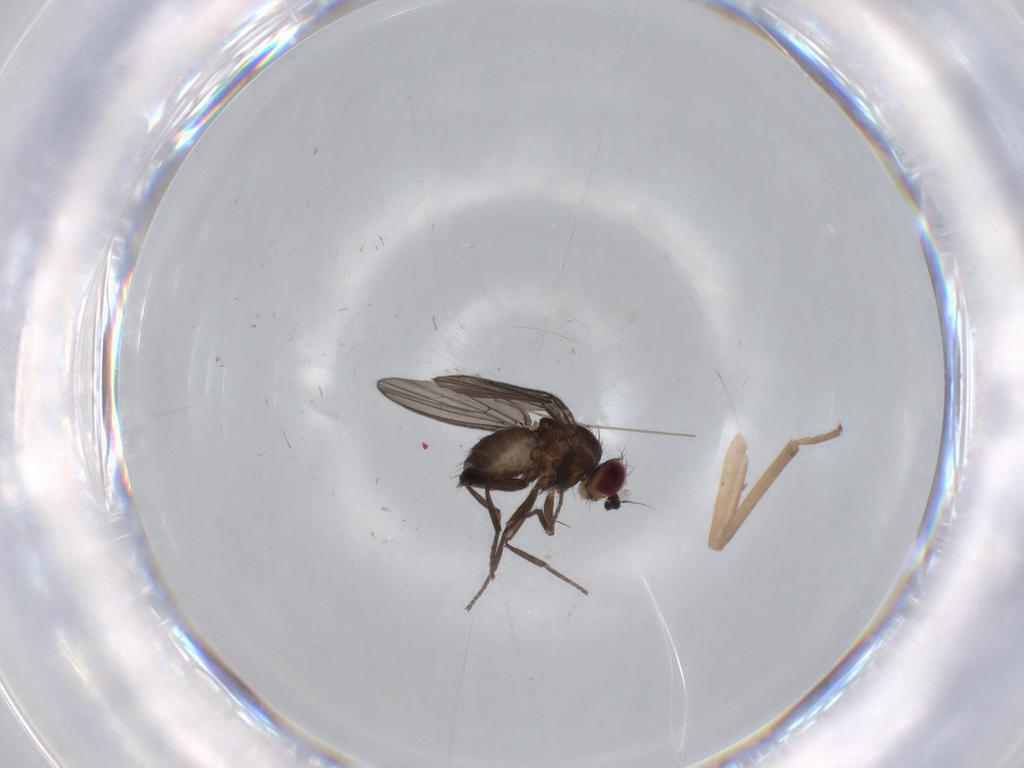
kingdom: Animalia
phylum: Arthropoda
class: Insecta
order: Diptera
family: Agromyzidae
